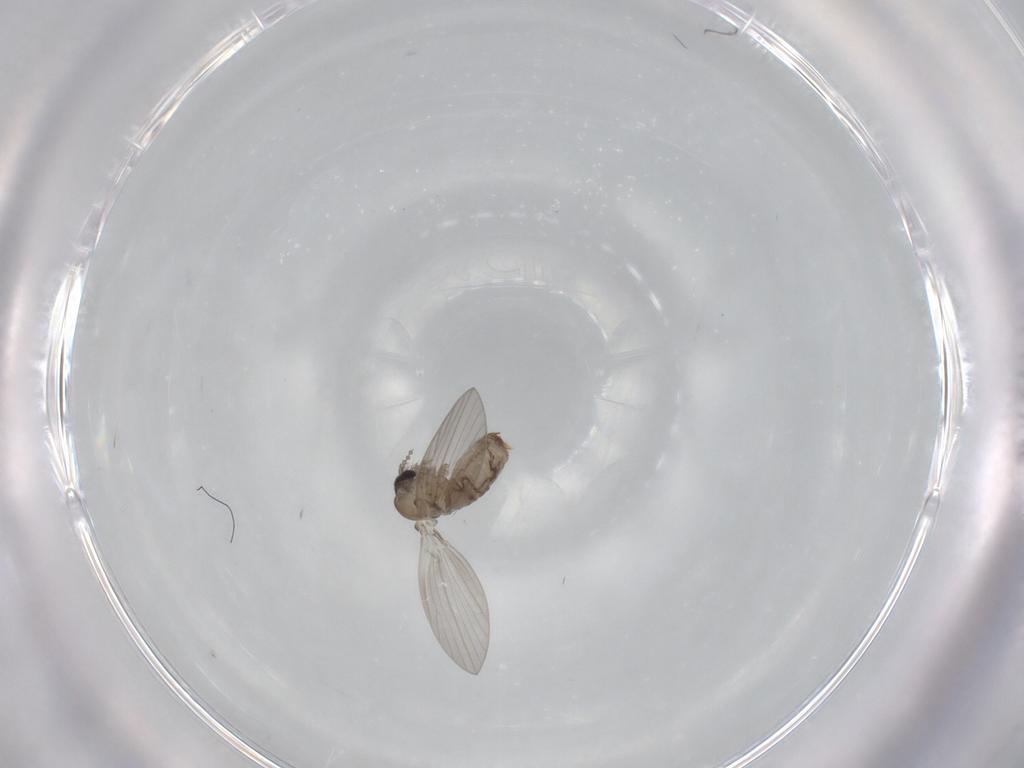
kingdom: Animalia
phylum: Arthropoda
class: Insecta
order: Diptera
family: Psychodidae
